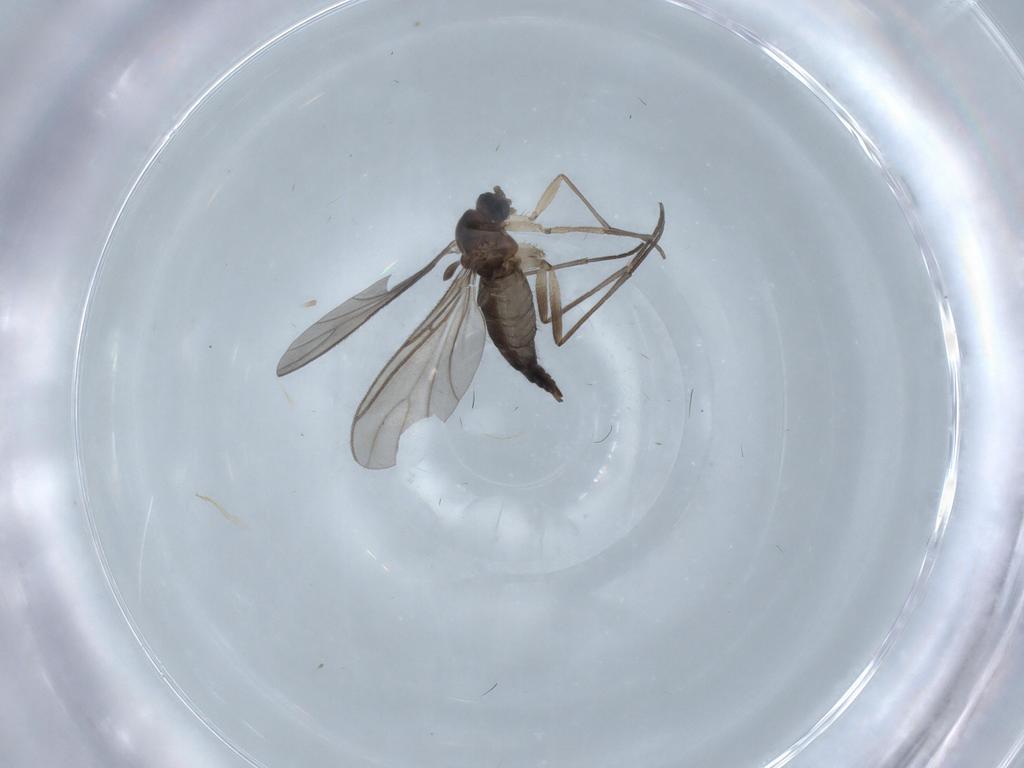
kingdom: Animalia
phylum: Arthropoda
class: Insecta
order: Diptera
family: Sciaridae
